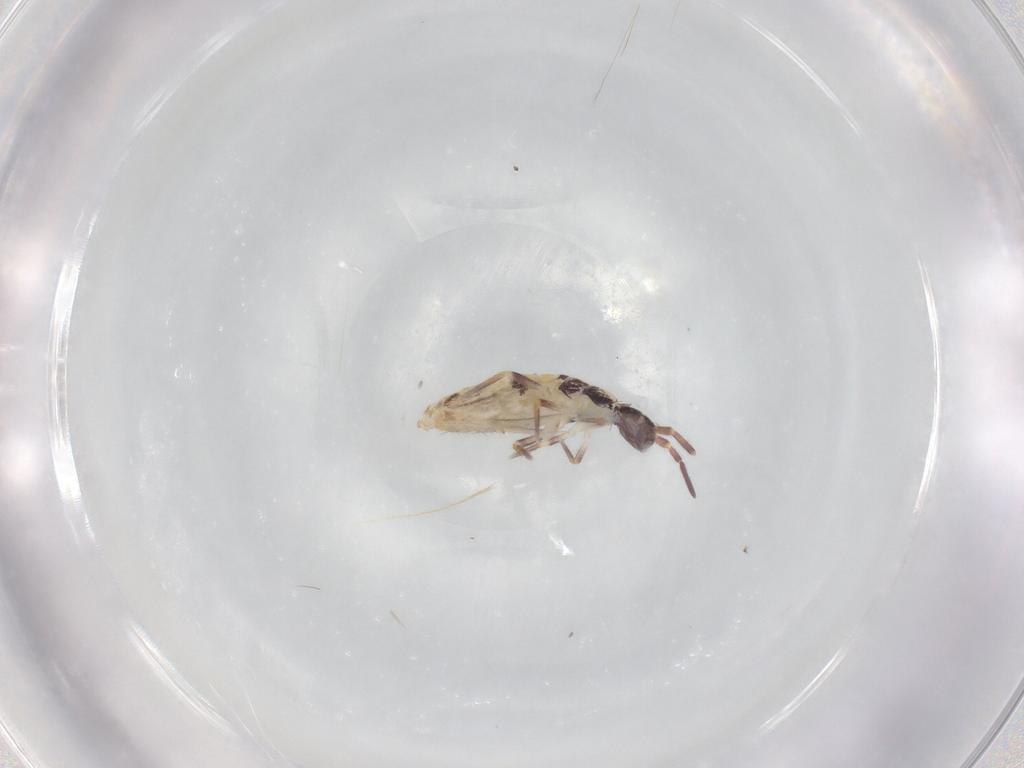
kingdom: Animalia
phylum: Arthropoda
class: Collembola
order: Entomobryomorpha
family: Entomobryidae
